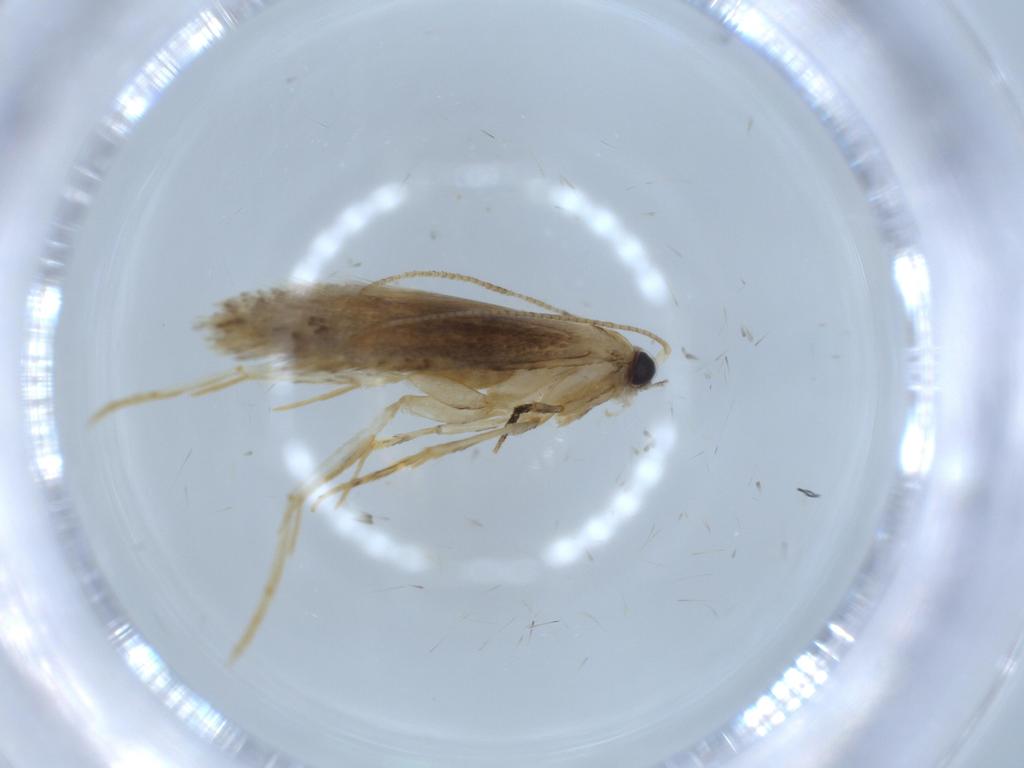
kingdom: Animalia
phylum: Arthropoda
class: Insecta
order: Lepidoptera
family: Tineidae
